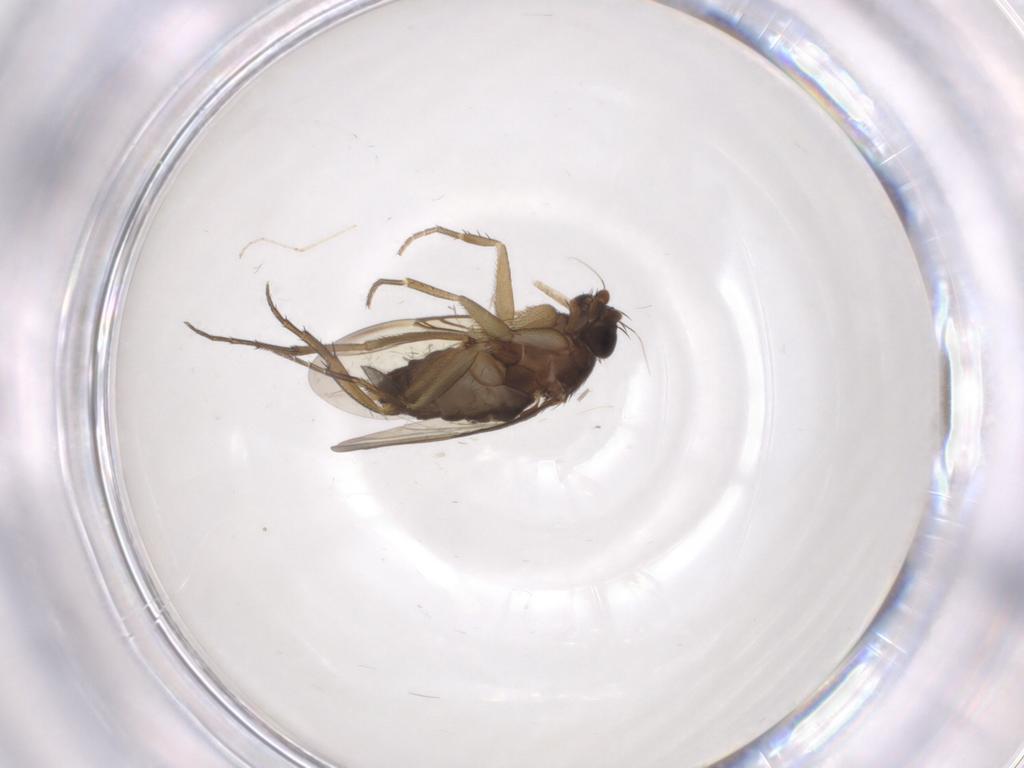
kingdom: Animalia
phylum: Arthropoda
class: Insecta
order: Diptera
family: Phoridae
